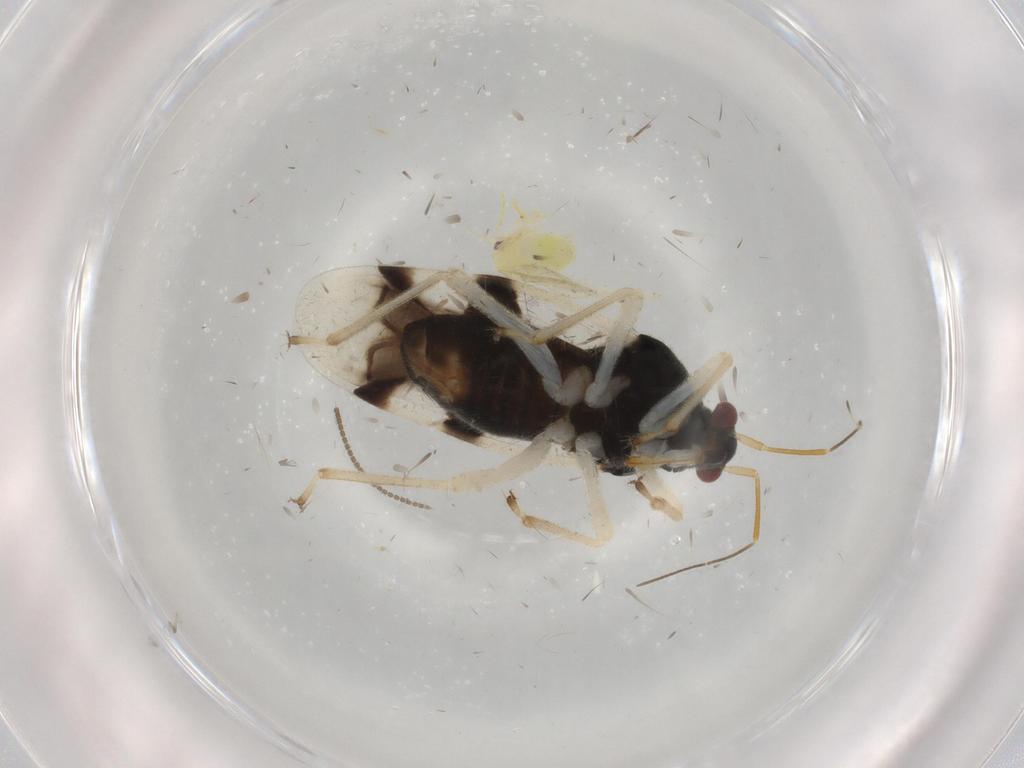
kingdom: Animalia
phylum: Arthropoda
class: Insecta
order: Hemiptera
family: Miridae
